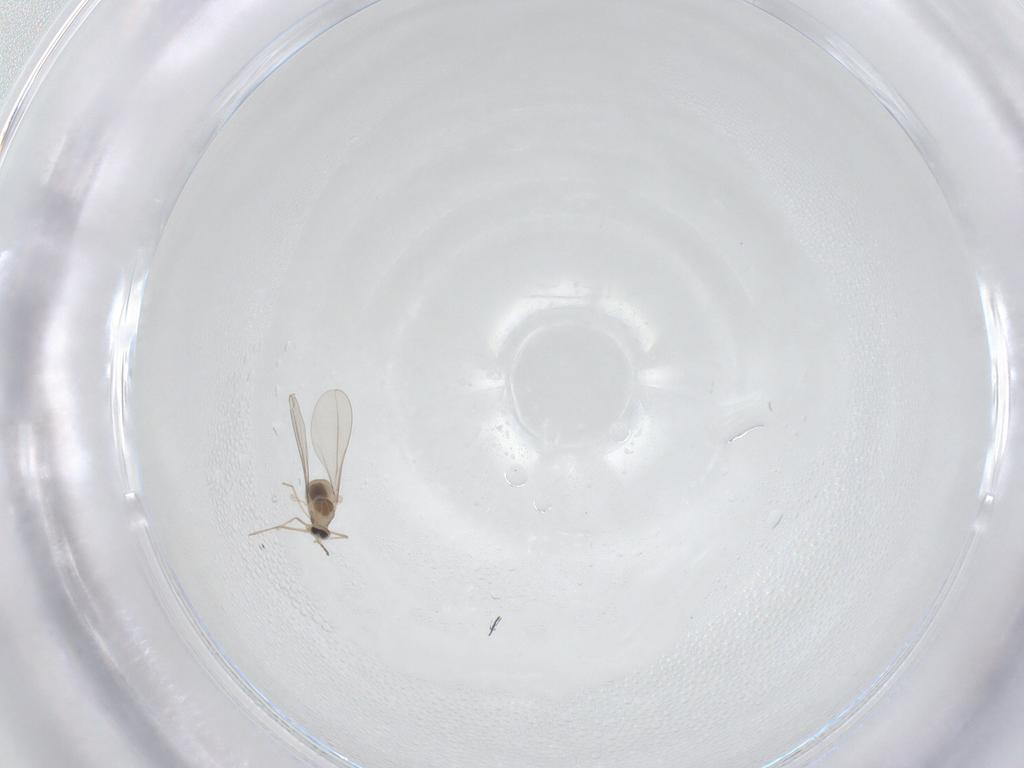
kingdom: Animalia
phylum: Arthropoda
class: Insecta
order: Diptera
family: Cecidomyiidae
